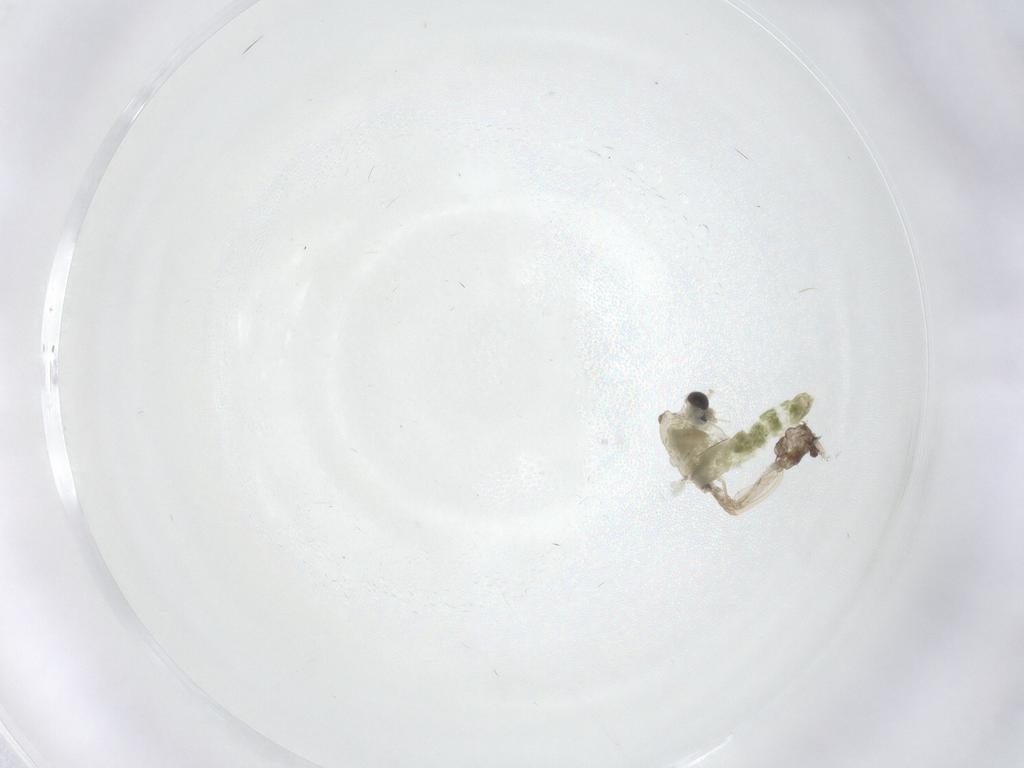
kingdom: Animalia
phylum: Arthropoda
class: Insecta
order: Diptera
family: Chironomidae
